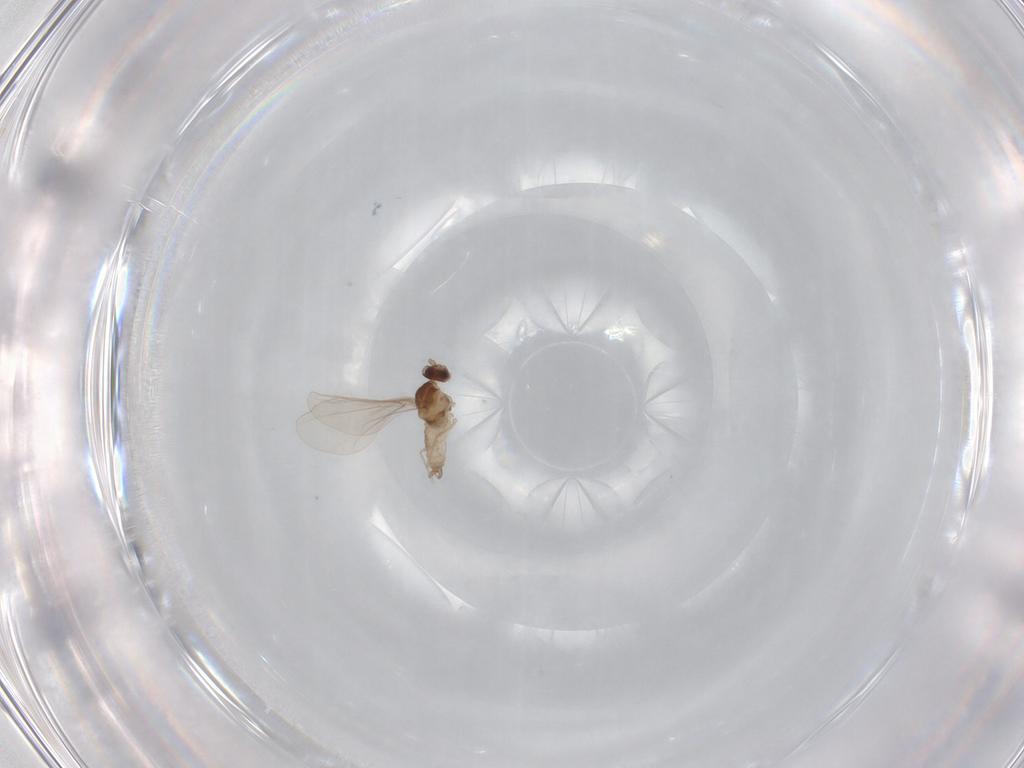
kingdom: Animalia
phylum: Arthropoda
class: Insecta
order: Diptera
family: Cecidomyiidae
